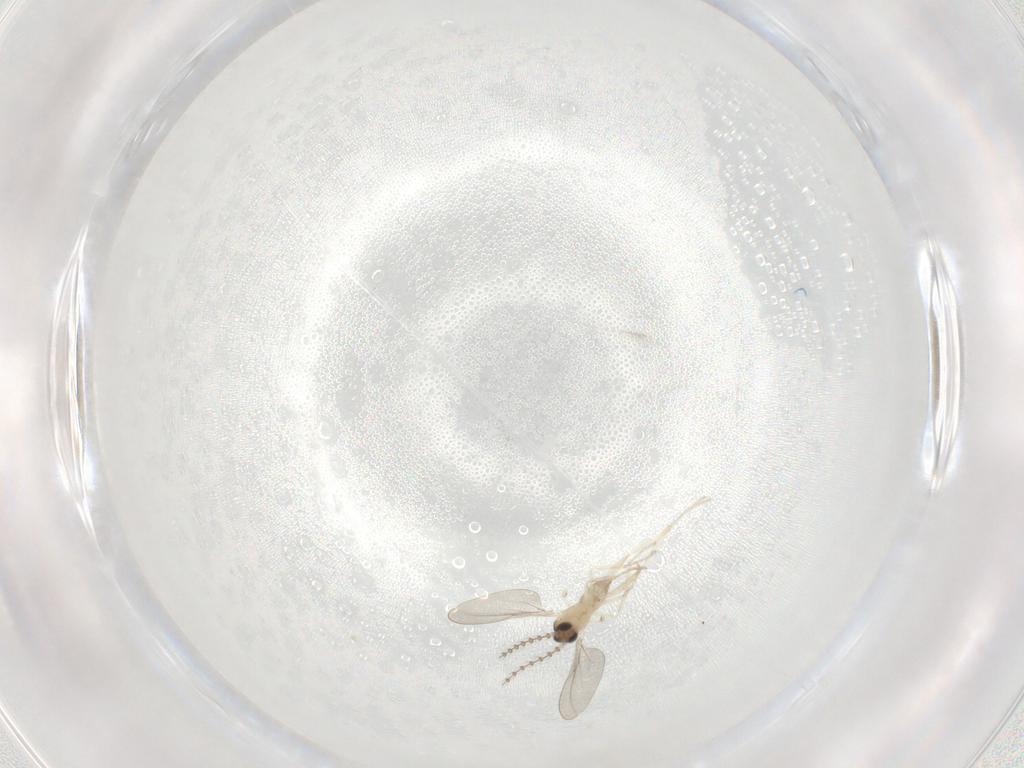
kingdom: Animalia
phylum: Arthropoda
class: Insecta
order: Diptera
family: Cecidomyiidae
